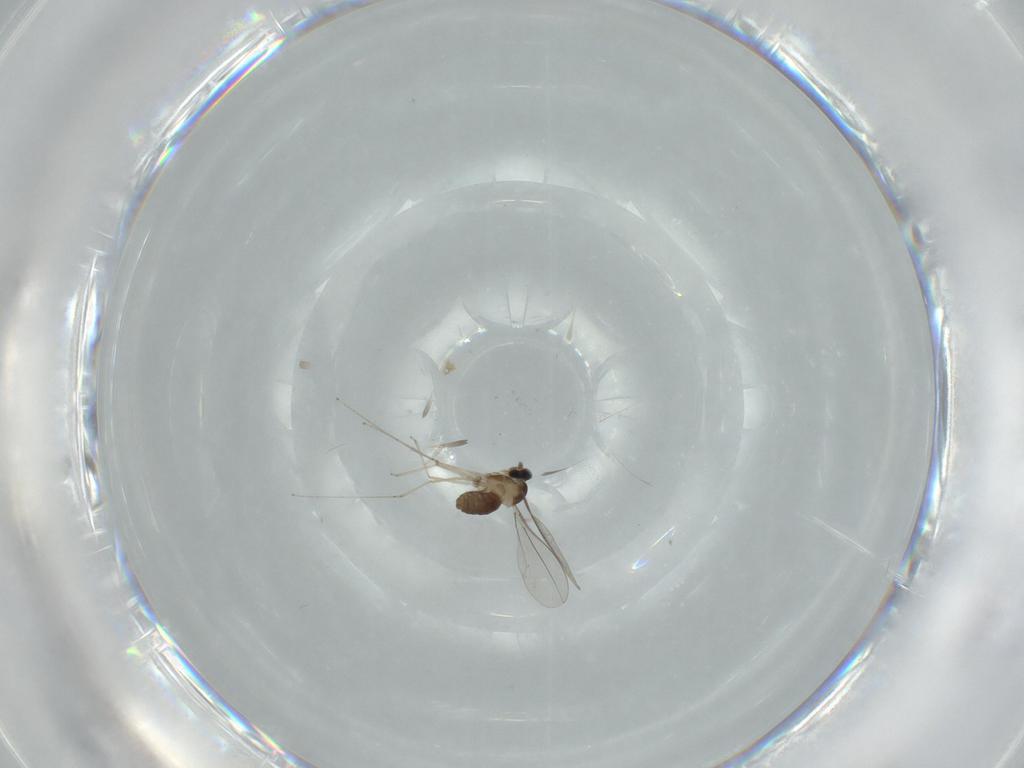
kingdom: Animalia
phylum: Arthropoda
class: Insecta
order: Diptera
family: Cecidomyiidae
